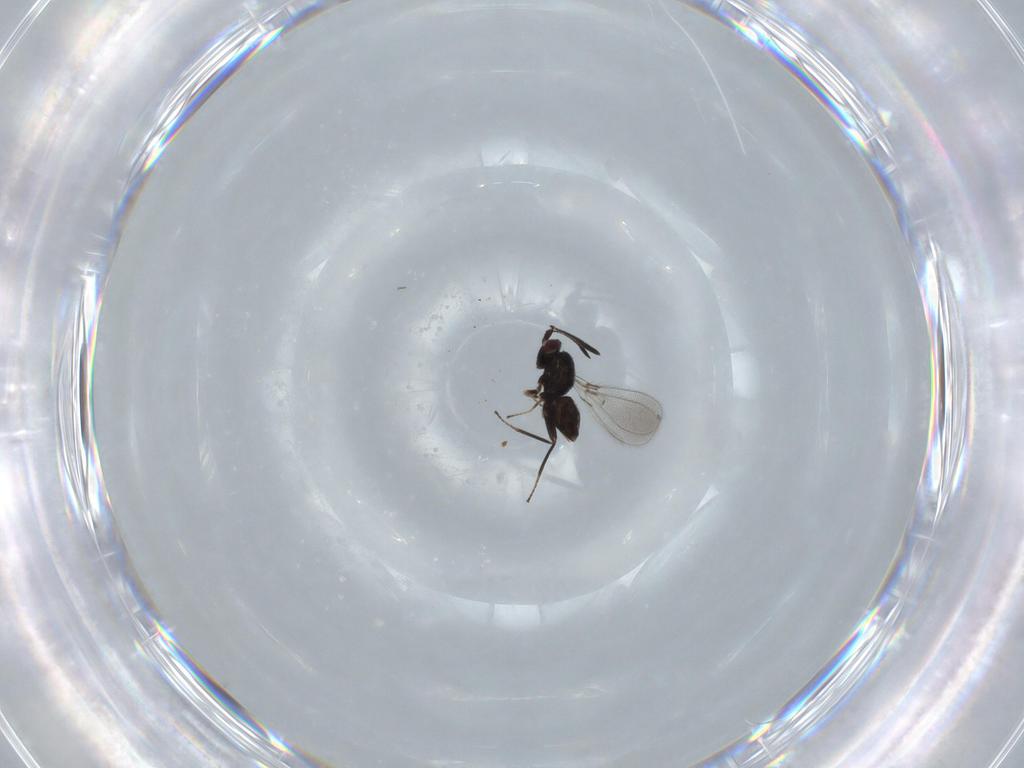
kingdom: Animalia
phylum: Arthropoda
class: Insecta
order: Hymenoptera
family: Mymaridae
